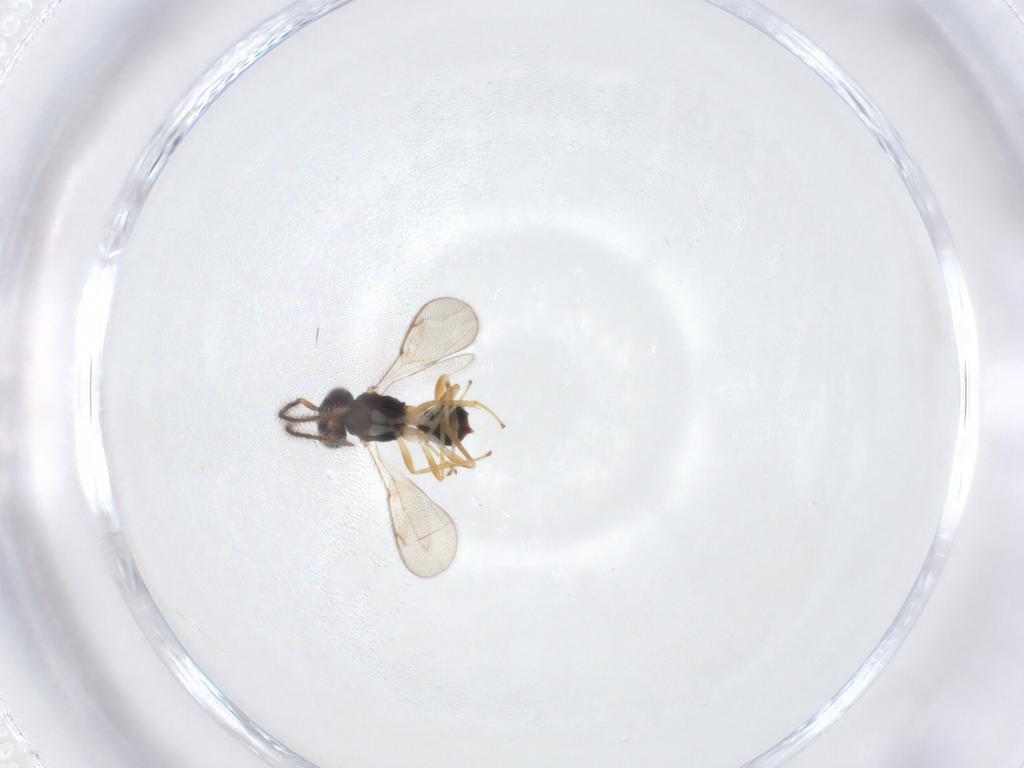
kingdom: Animalia
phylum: Arthropoda
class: Insecta
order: Hymenoptera
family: Diparidae
